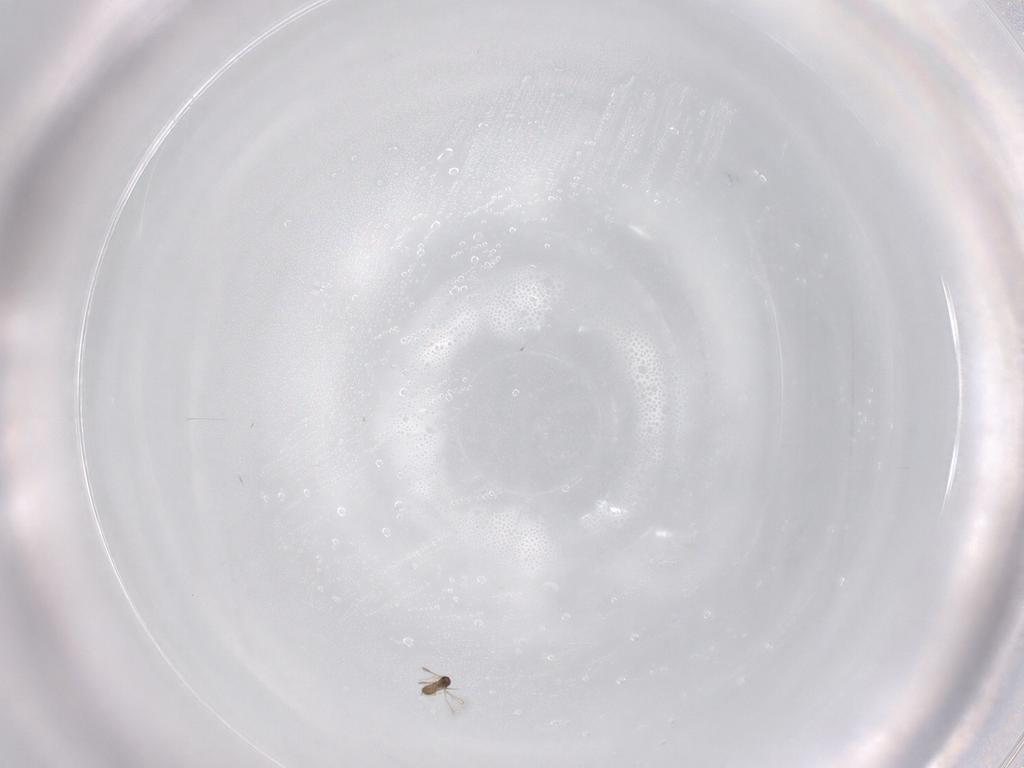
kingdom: Animalia
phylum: Arthropoda
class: Insecta
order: Hymenoptera
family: Mymaridae
